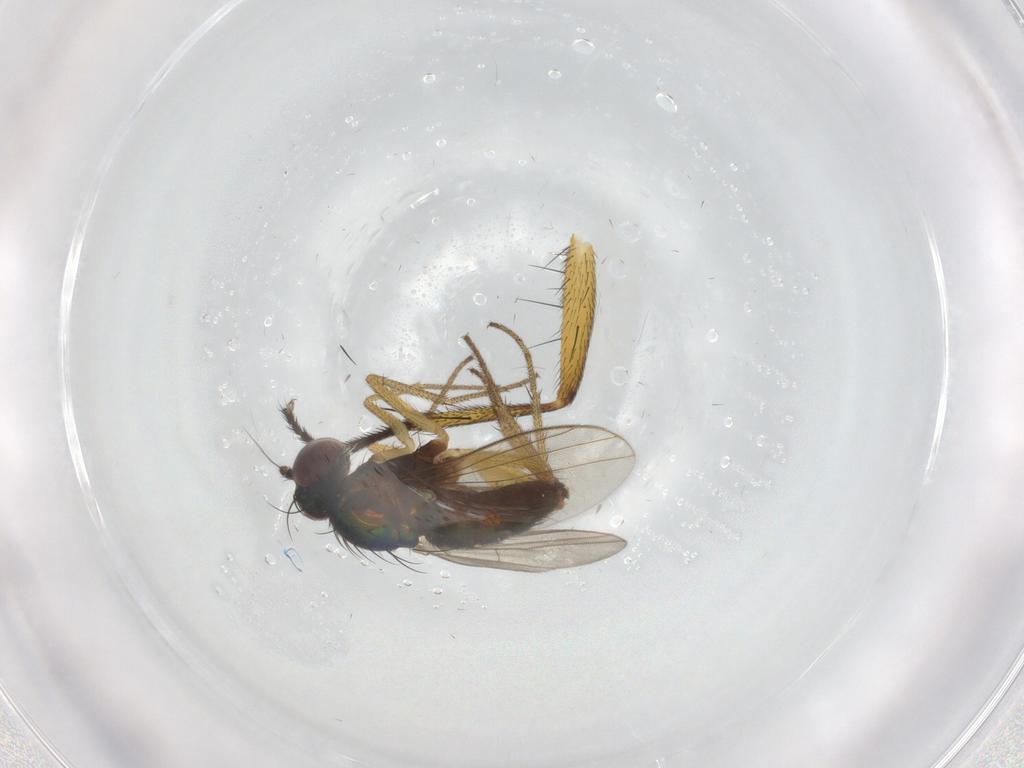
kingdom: Animalia
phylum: Arthropoda
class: Insecta
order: Diptera
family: Muscidae
